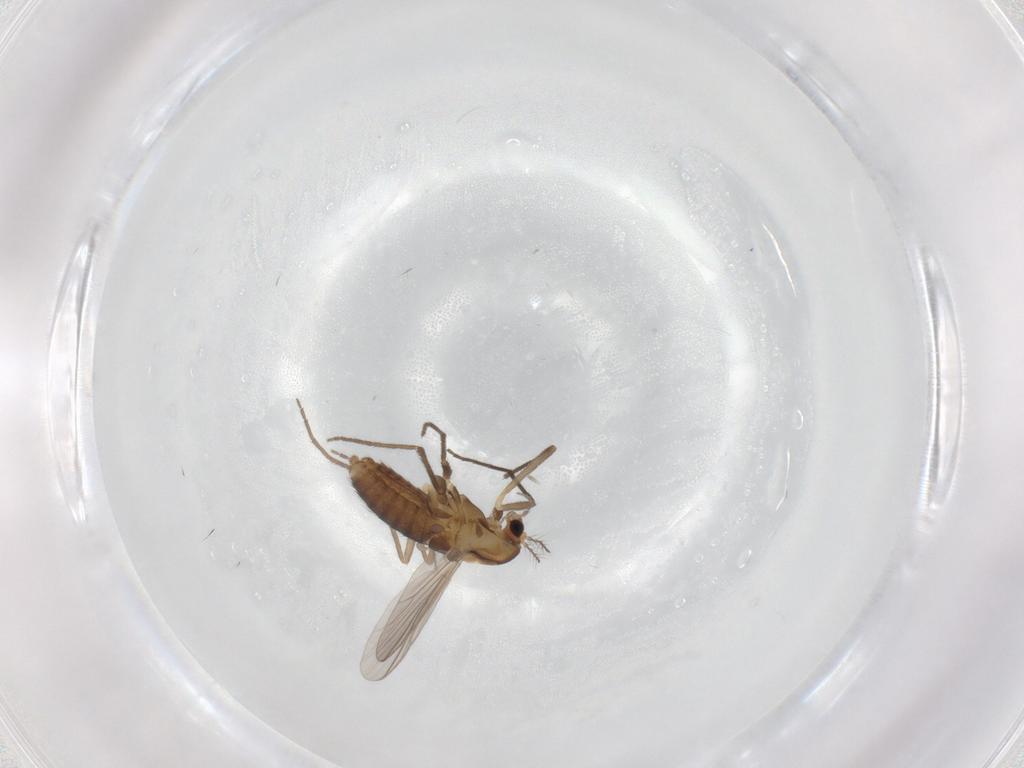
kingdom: Animalia
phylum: Arthropoda
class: Insecta
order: Diptera
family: Chironomidae
